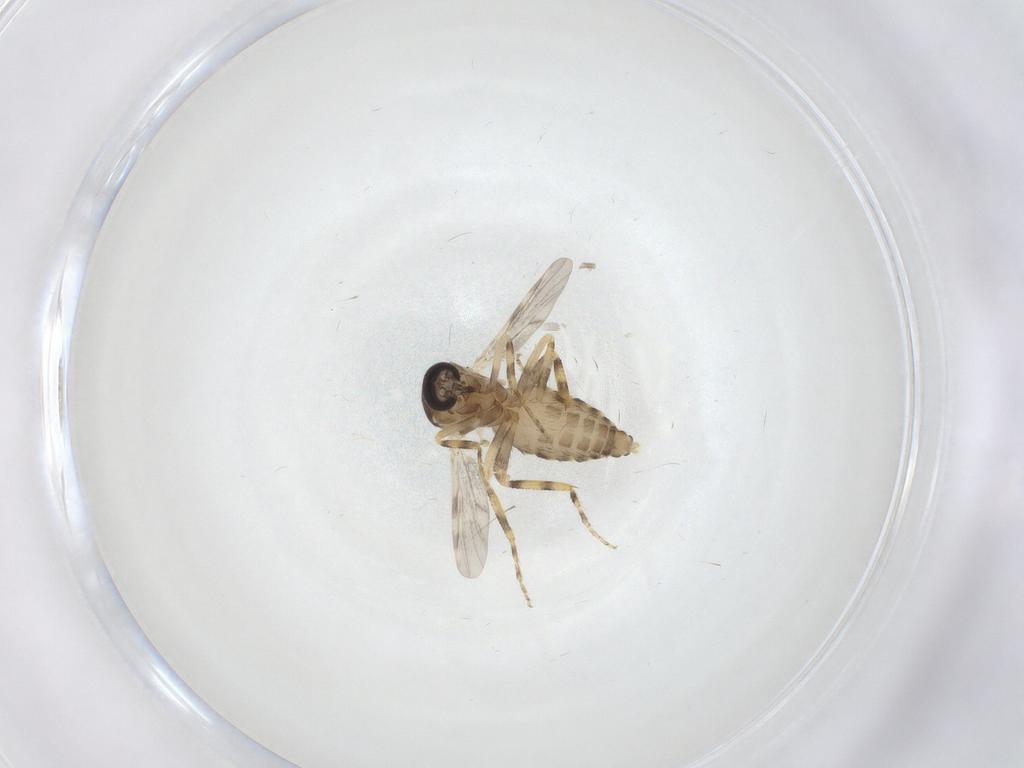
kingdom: Animalia
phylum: Arthropoda
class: Insecta
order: Diptera
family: Ceratopogonidae
